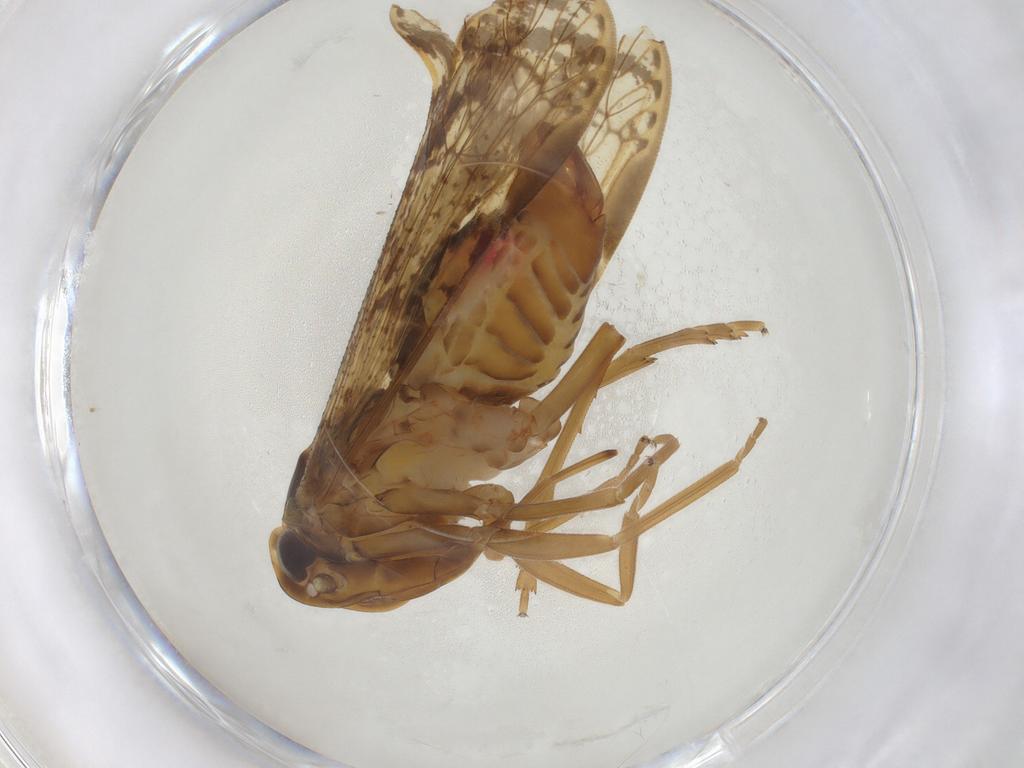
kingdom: Animalia
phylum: Arthropoda
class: Insecta
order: Hemiptera
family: Cixiidae
